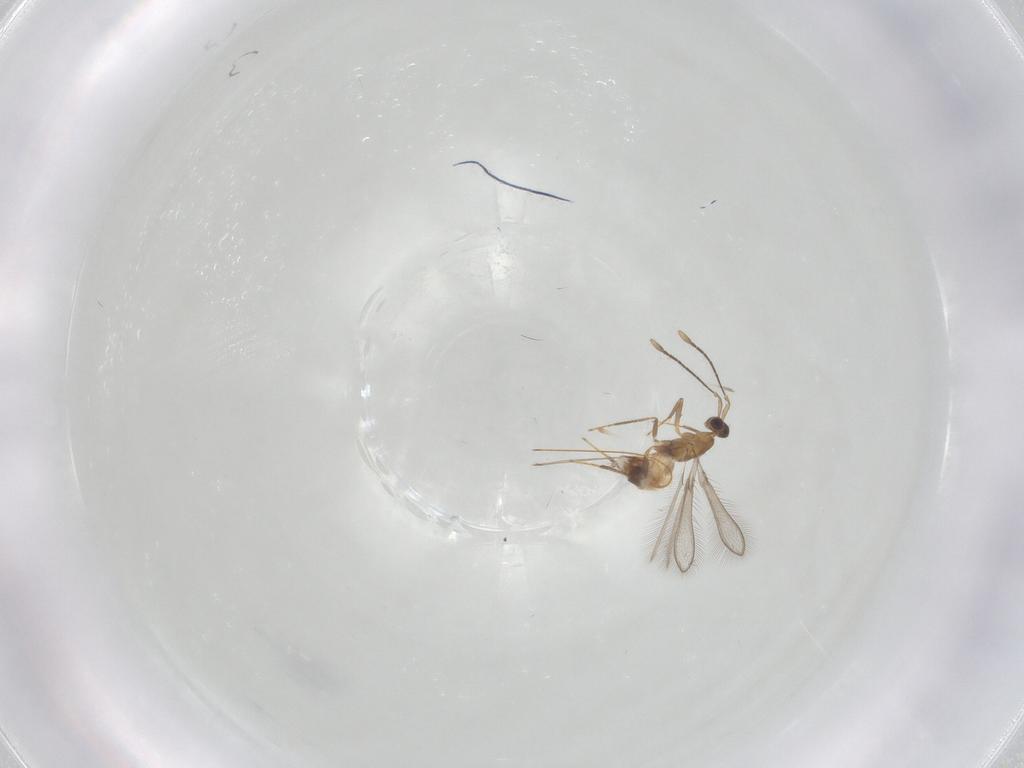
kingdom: Animalia
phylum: Arthropoda
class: Insecta
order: Hymenoptera
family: Mymaridae
